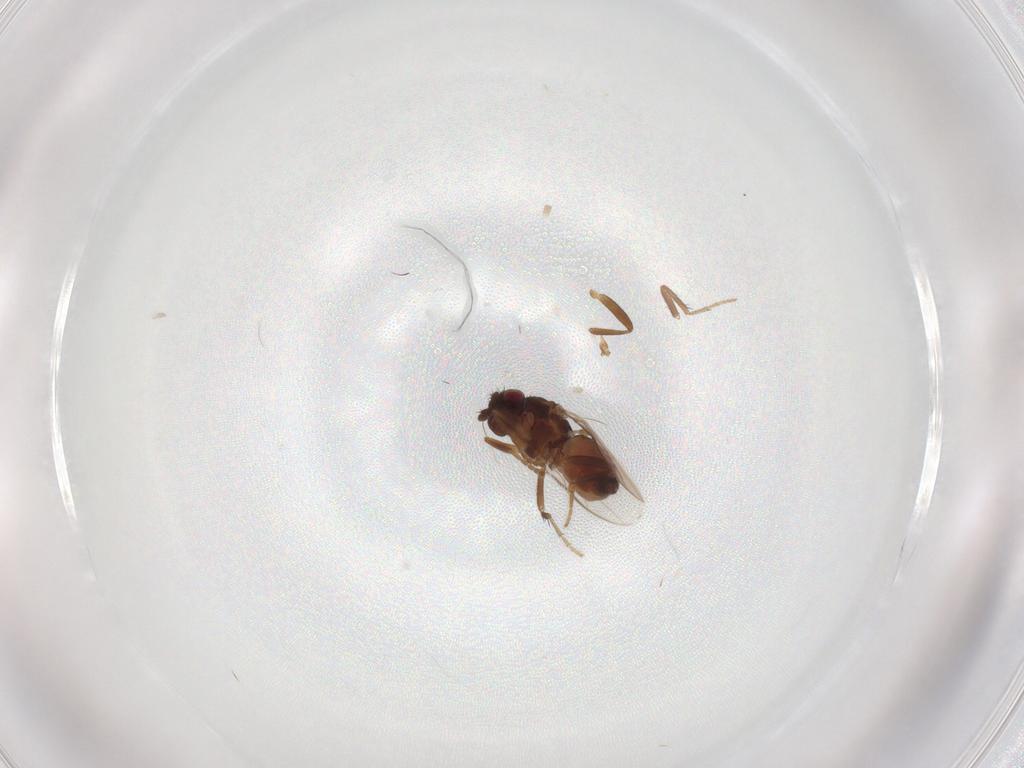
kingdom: Animalia
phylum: Arthropoda
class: Insecta
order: Diptera
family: Sphaeroceridae
